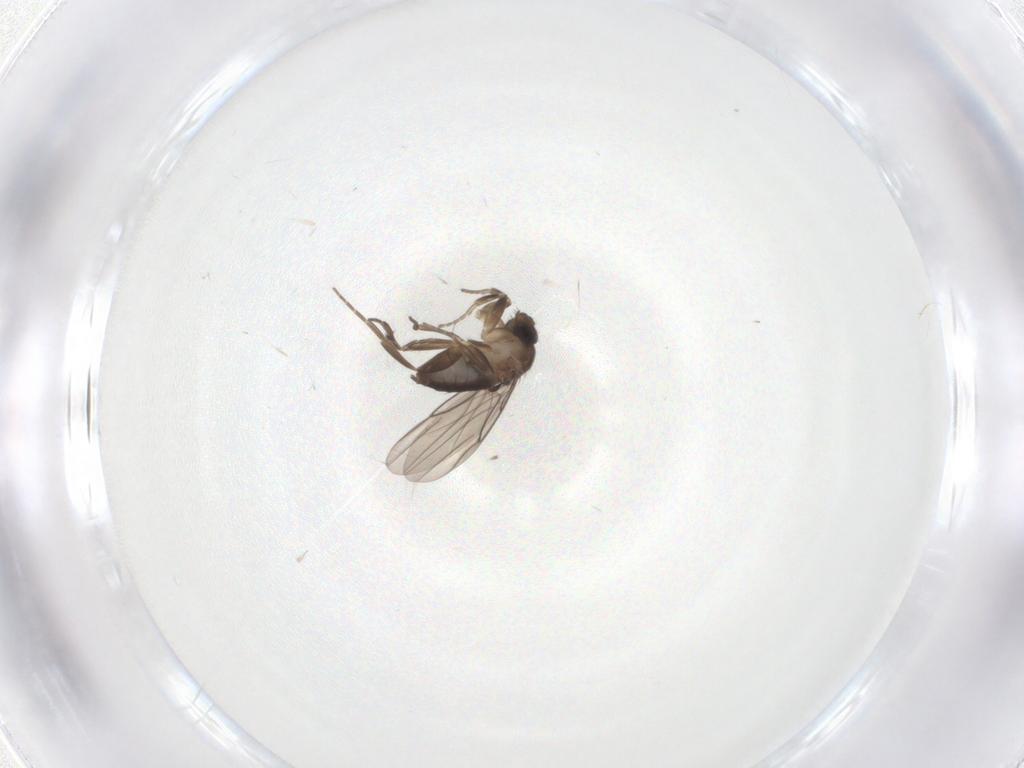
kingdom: Animalia
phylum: Arthropoda
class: Insecta
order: Diptera
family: Phoridae
